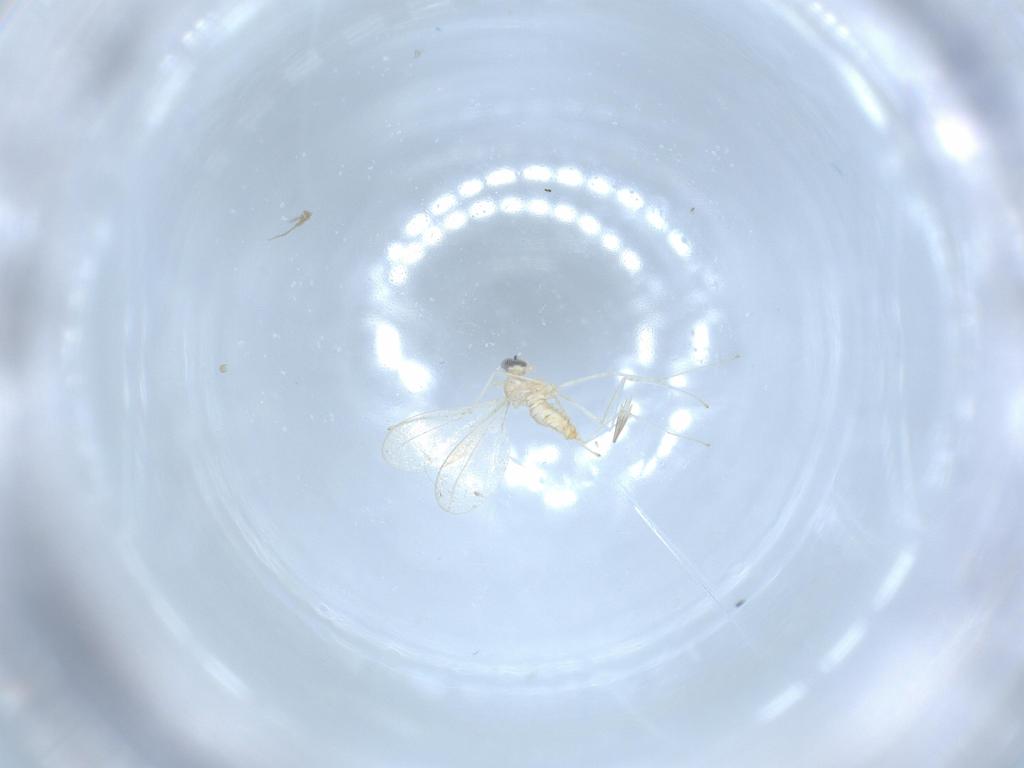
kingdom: Animalia
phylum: Arthropoda
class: Insecta
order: Diptera
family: Cecidomyiidae
